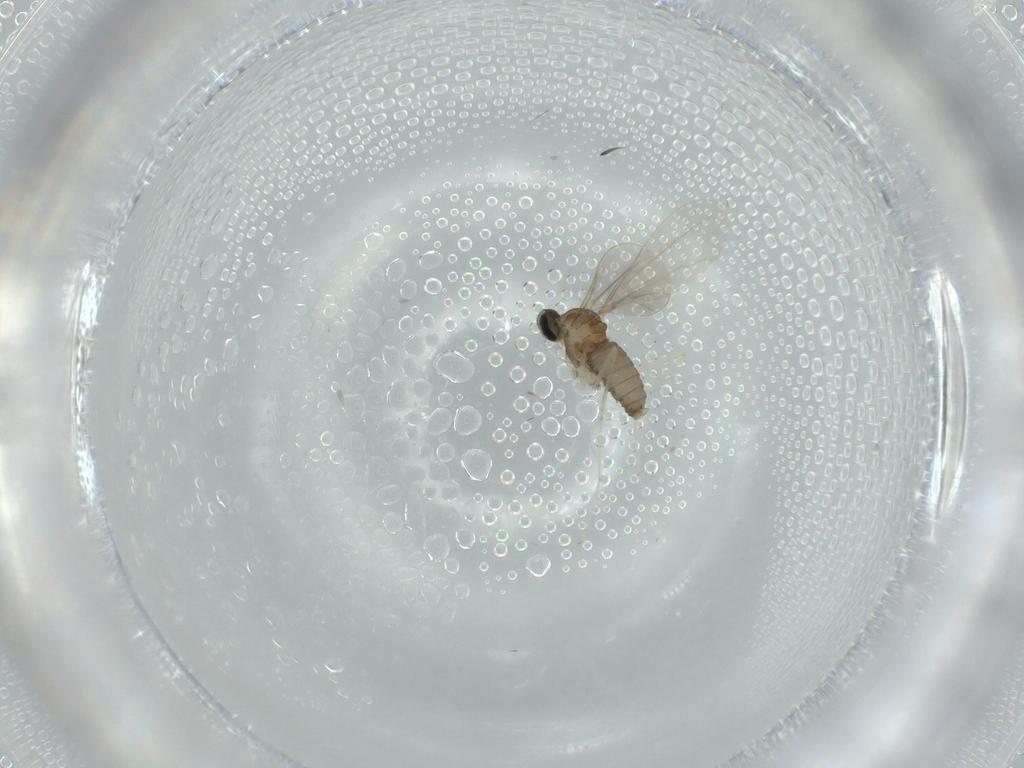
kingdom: Animalia
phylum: Arthropoda
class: Insecta
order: Diptera
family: Cecidomyiidae
